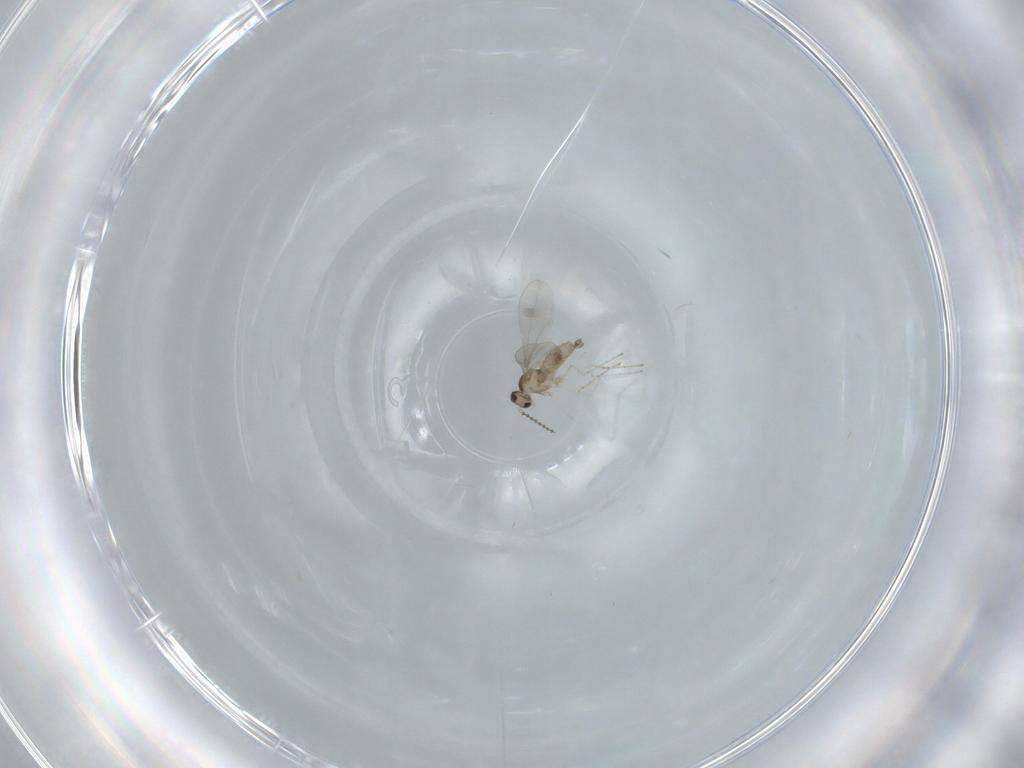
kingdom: Animalia
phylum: Arthropoda
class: Insecta
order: Diptera
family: Cecidomyiidae
